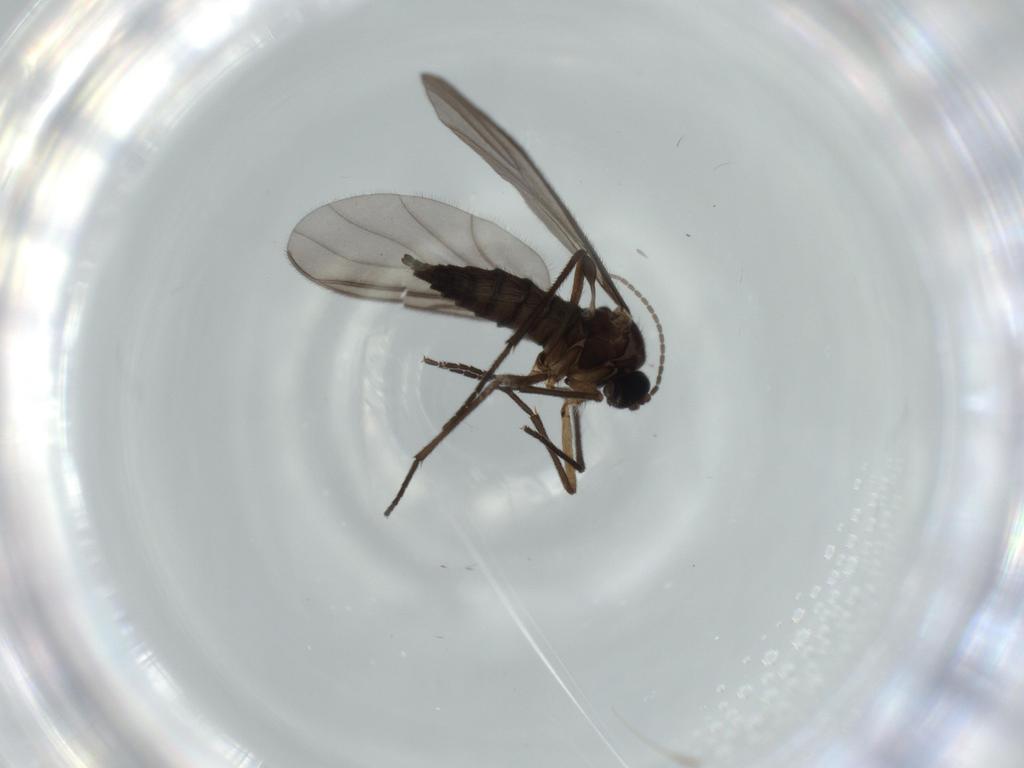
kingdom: Animalia
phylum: Arthropoda
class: Insecta
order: Diptera
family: Sciaridae
